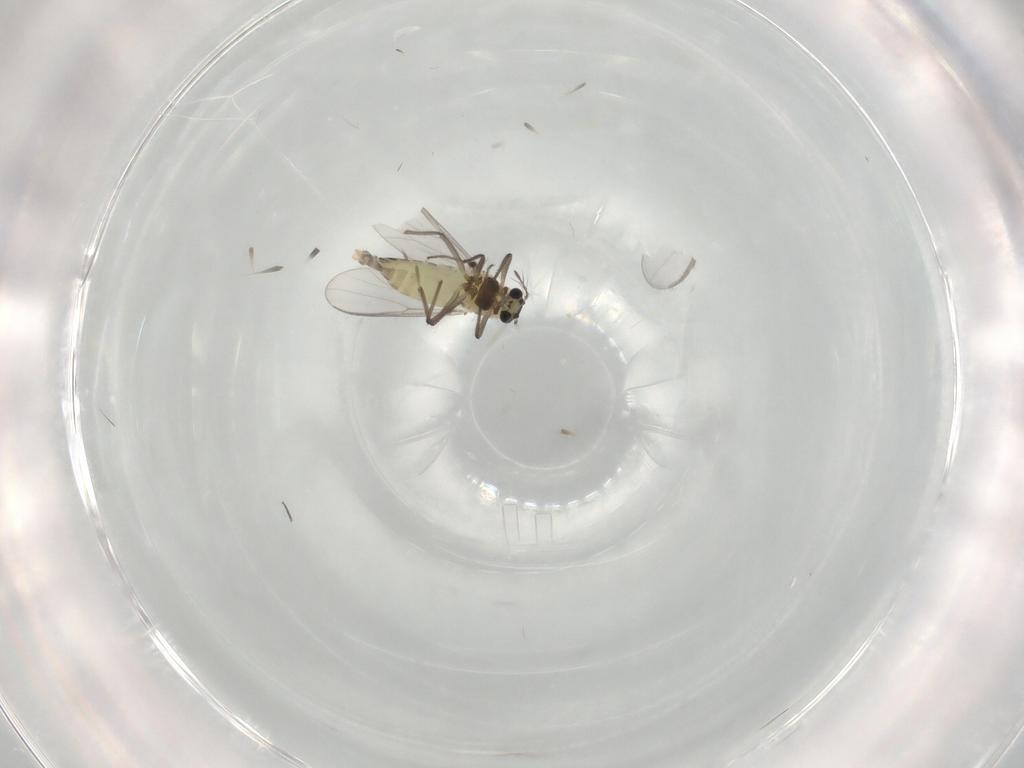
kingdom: Animalia
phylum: Arthropoda
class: Insecta
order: Diptera
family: Chironomidae
